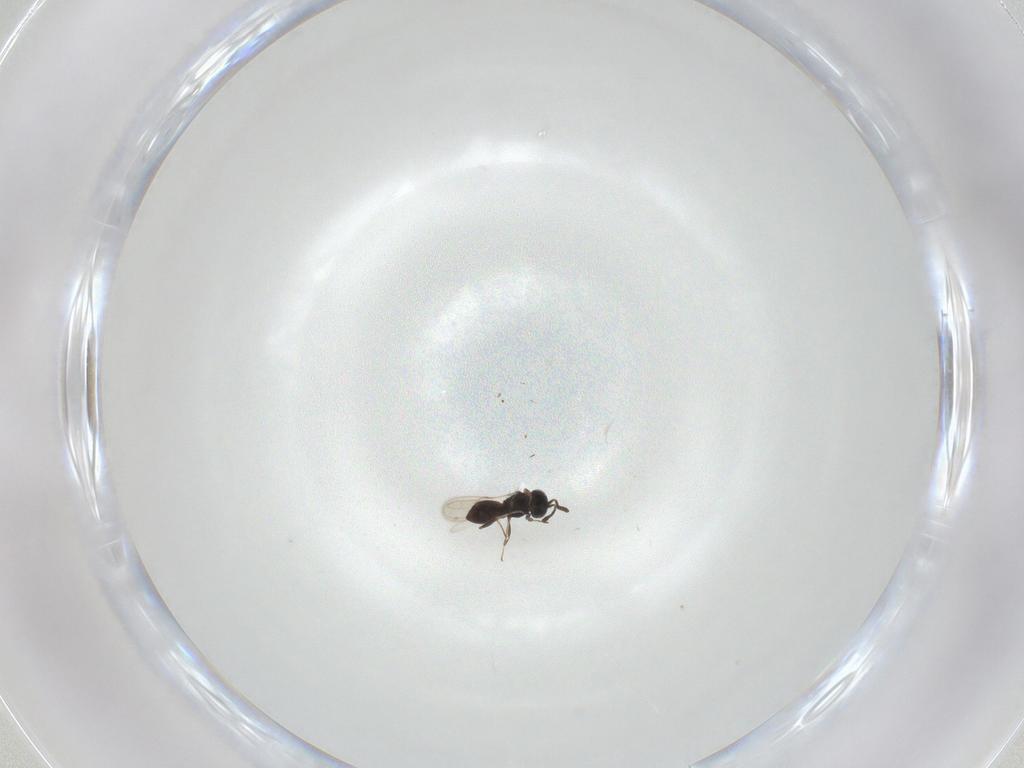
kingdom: Animalia
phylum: Arthropoda
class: Insecta
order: Hymenoptera
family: Scelionidae
